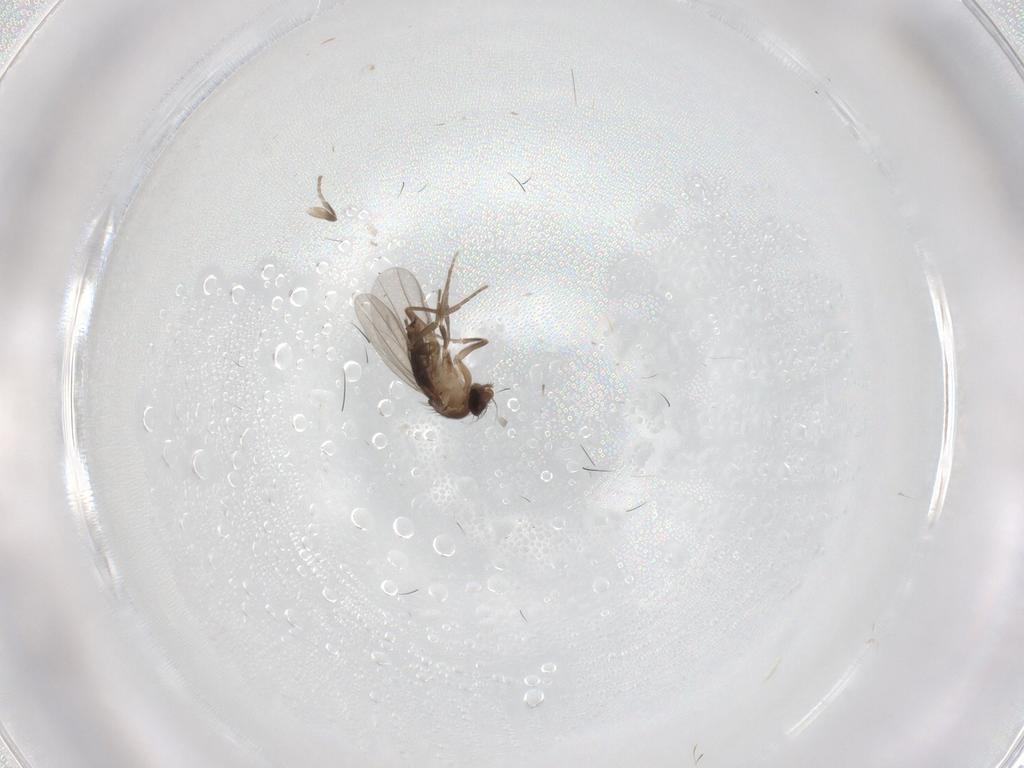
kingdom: Animalia
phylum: Arthropoda
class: Insecta
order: Diptera
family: Phoridae
